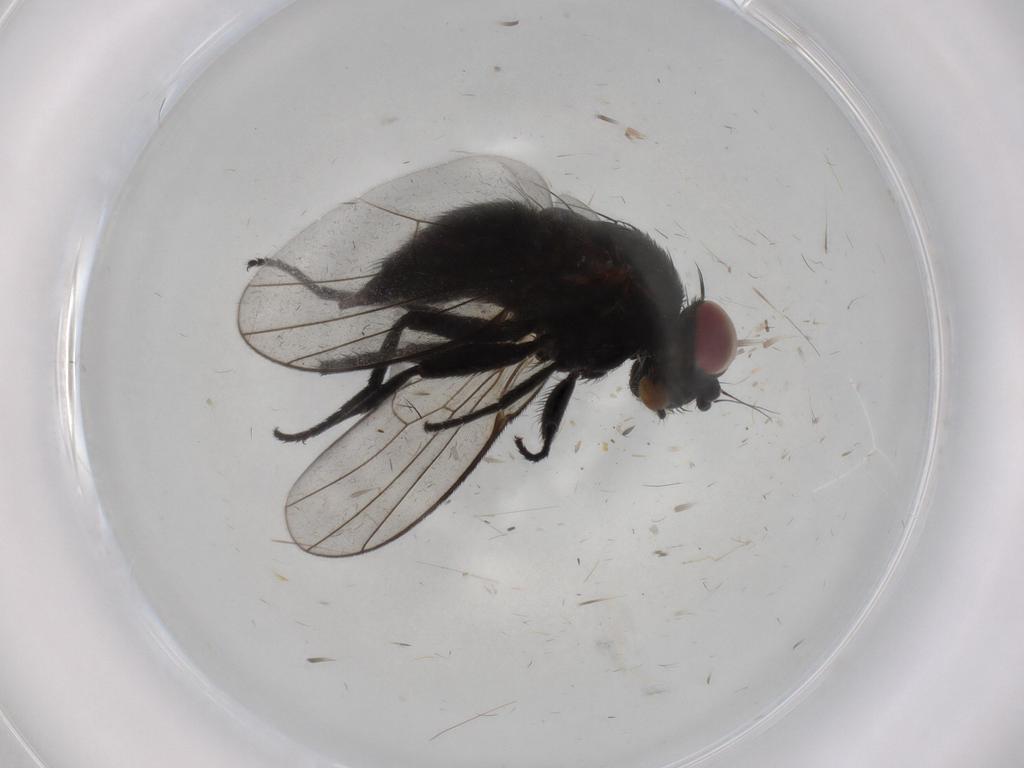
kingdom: Animalia
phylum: Arthropoda
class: Insecta
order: Diptera
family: Agromyzidae
